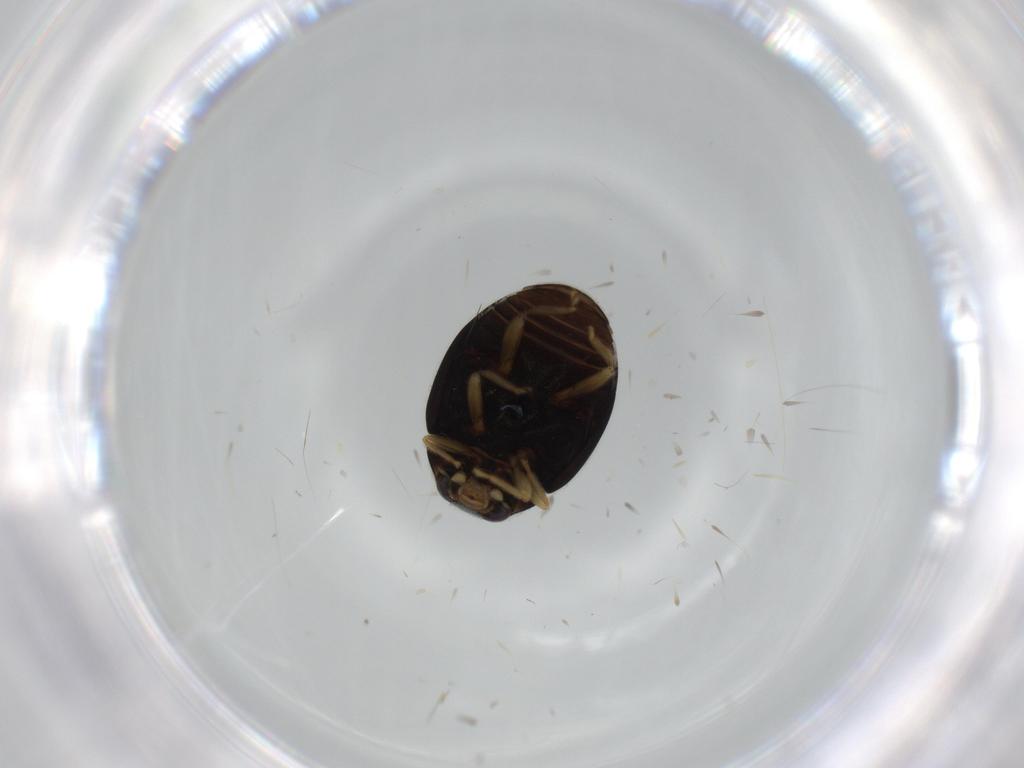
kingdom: Animalia
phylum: Arthropoda
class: Insecta
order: Coleoptera
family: Coccinellidae
